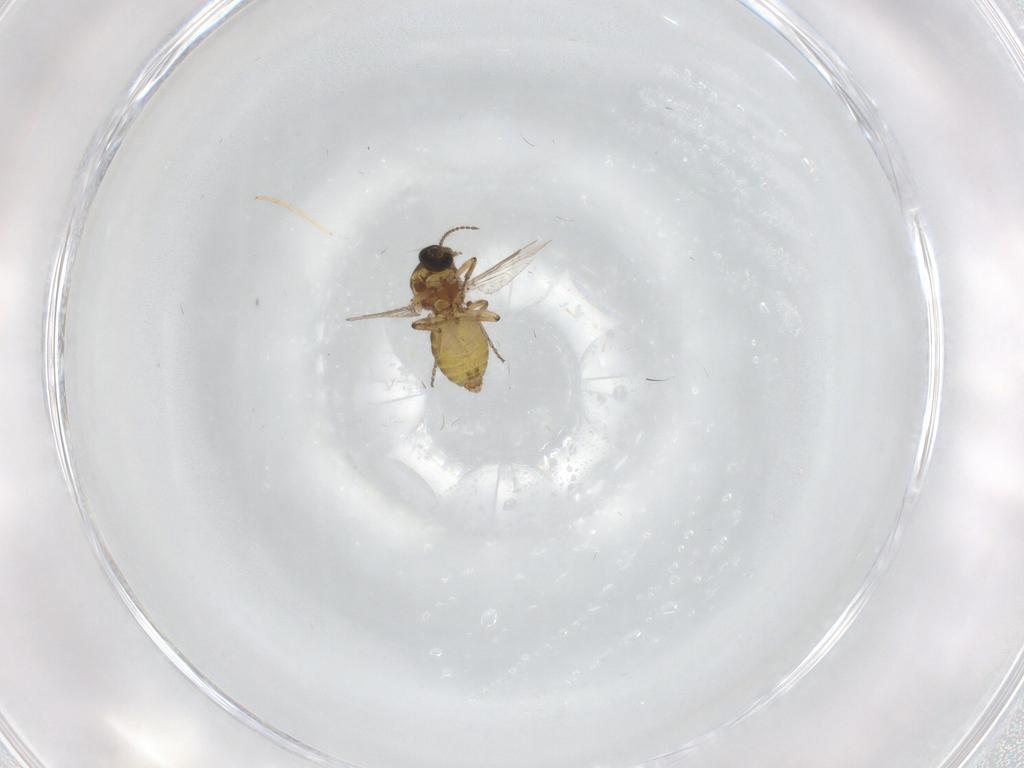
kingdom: Animalia
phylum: Arthropoda
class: Insecta
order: Diptera
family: Ceratopogonidae
